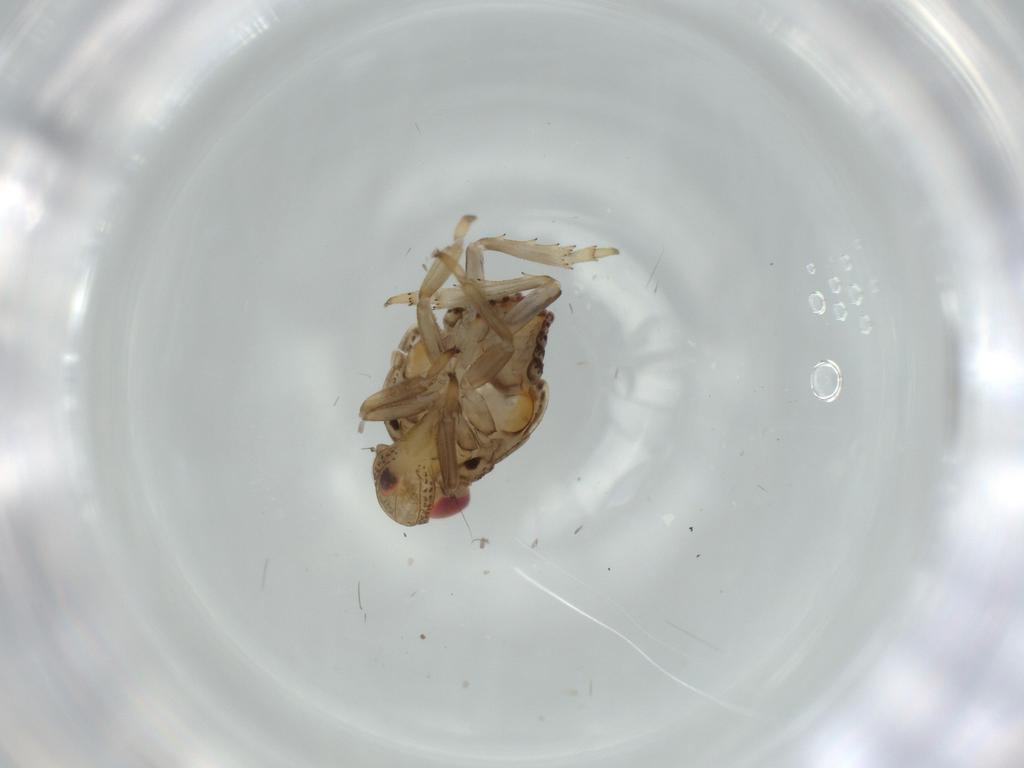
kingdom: Animalia
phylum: Arthropoda
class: Insecta
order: Hemiptera
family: Issidae
